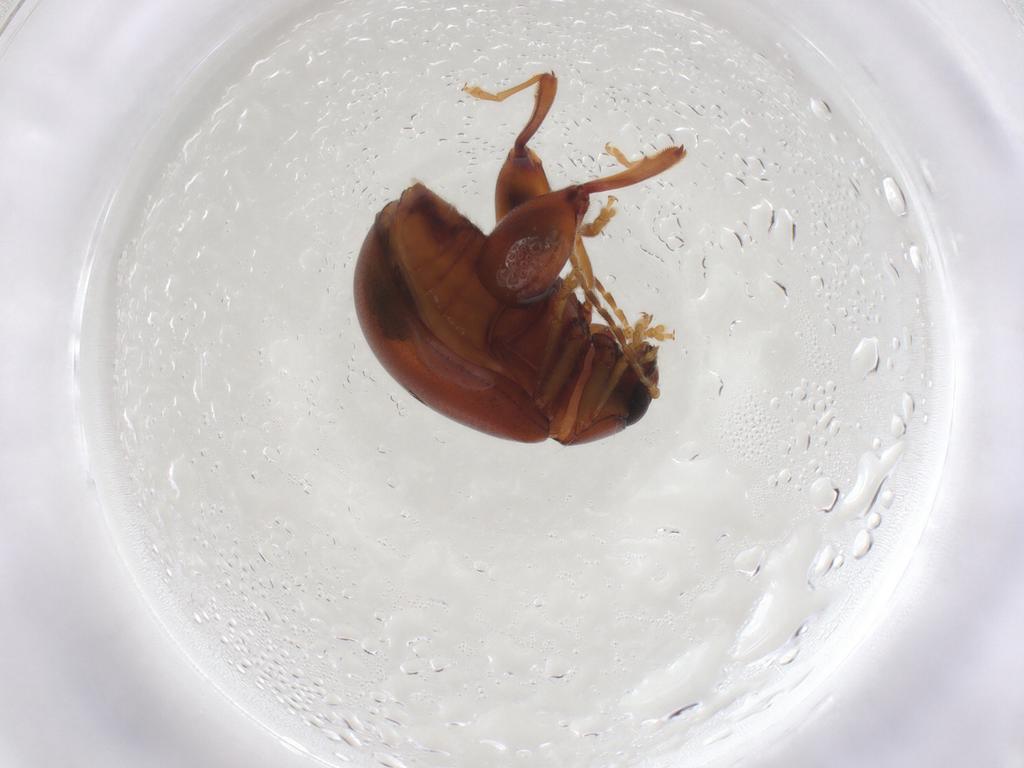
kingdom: Animalia
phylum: Arthropoda
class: Insecta
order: Coleoptera
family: Chrysomelidae
